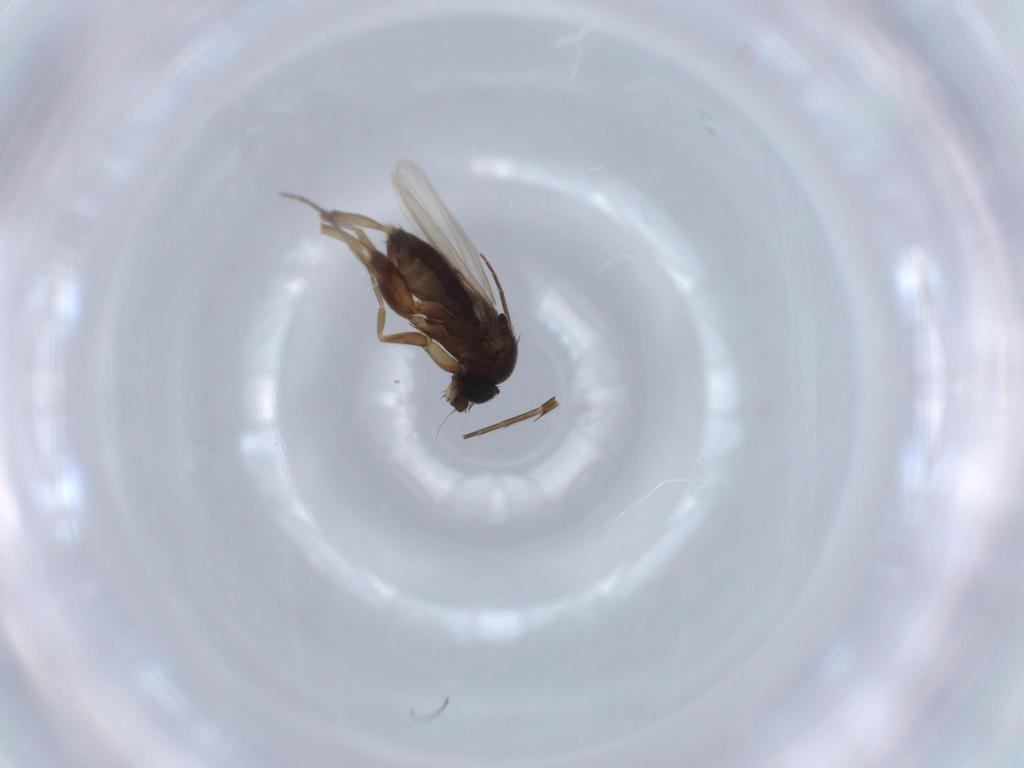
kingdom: Animalia
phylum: Arthropoda
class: Insecta
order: Diptera
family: Phoridae
